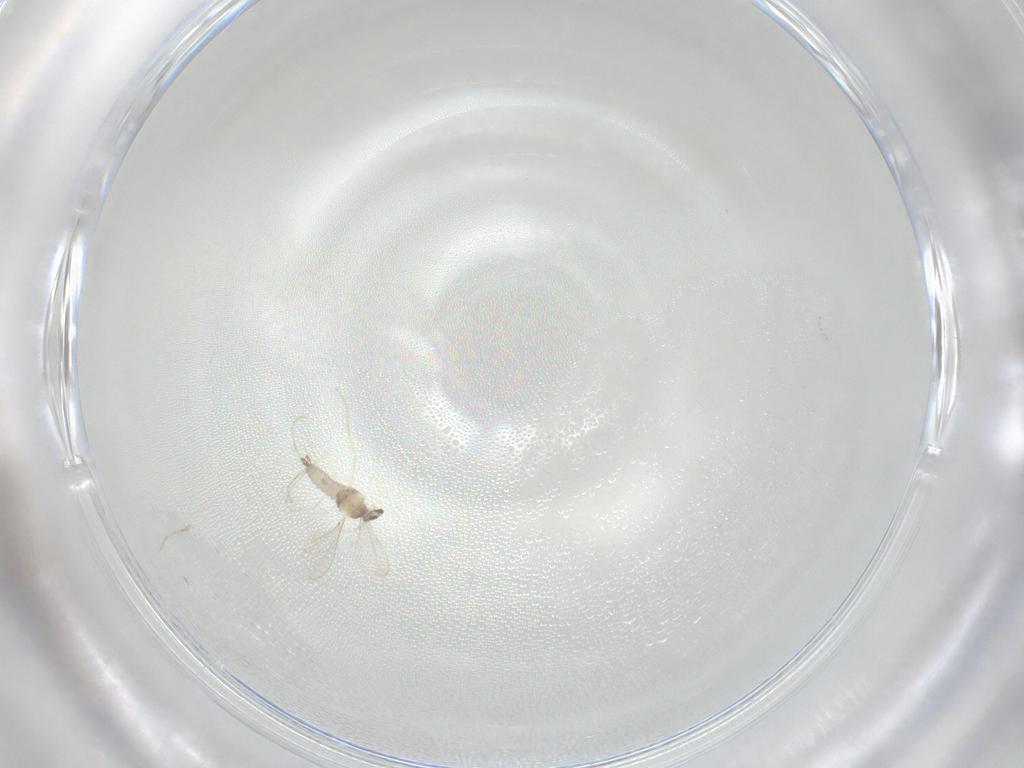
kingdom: Animalia
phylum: Arthropoda
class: Insecta
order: Diptera
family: Cecidomyiidae
